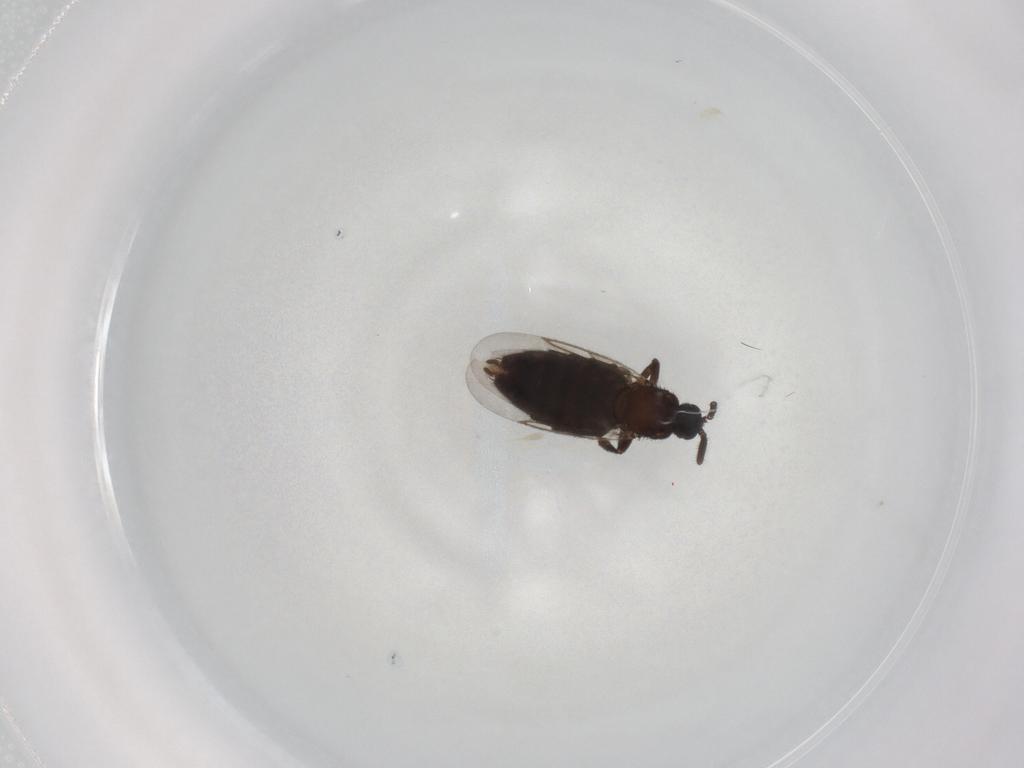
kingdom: Animalia
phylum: Arthropoda
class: Insecta
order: Diptera
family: Scatopsidae
